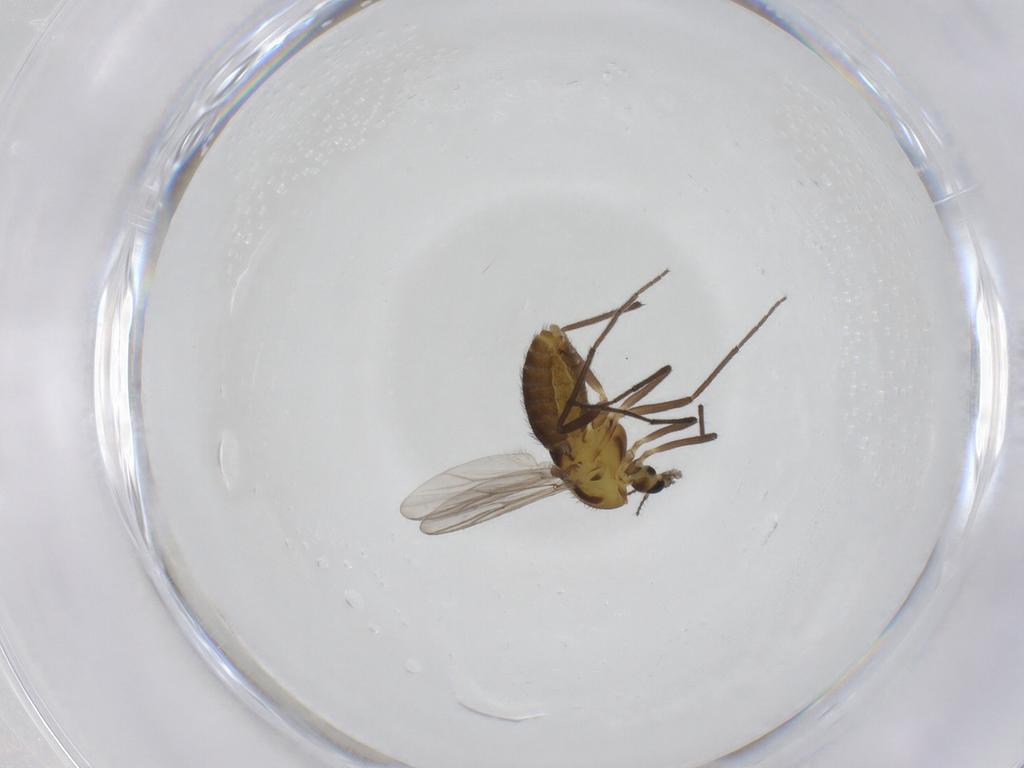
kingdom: Animalia
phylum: Arthropoda
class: Insecta
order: Diptera
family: Chironomidae
